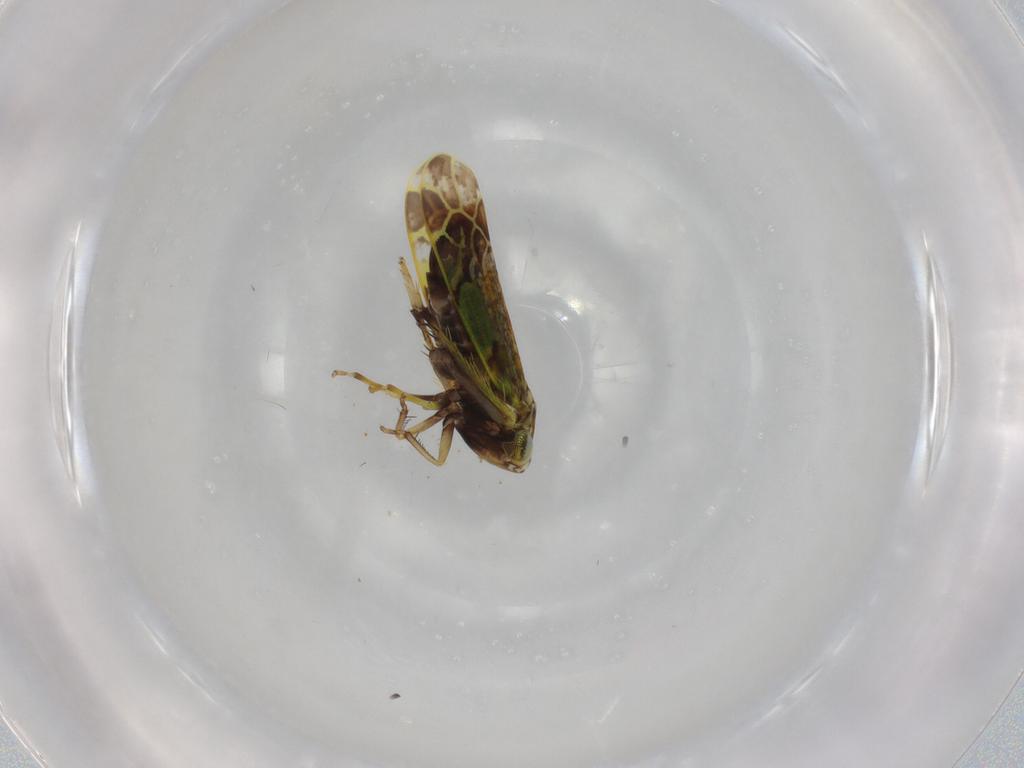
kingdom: Animalia
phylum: Arthropoda
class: Insecta
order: Hemiptera
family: Cicadellidae
